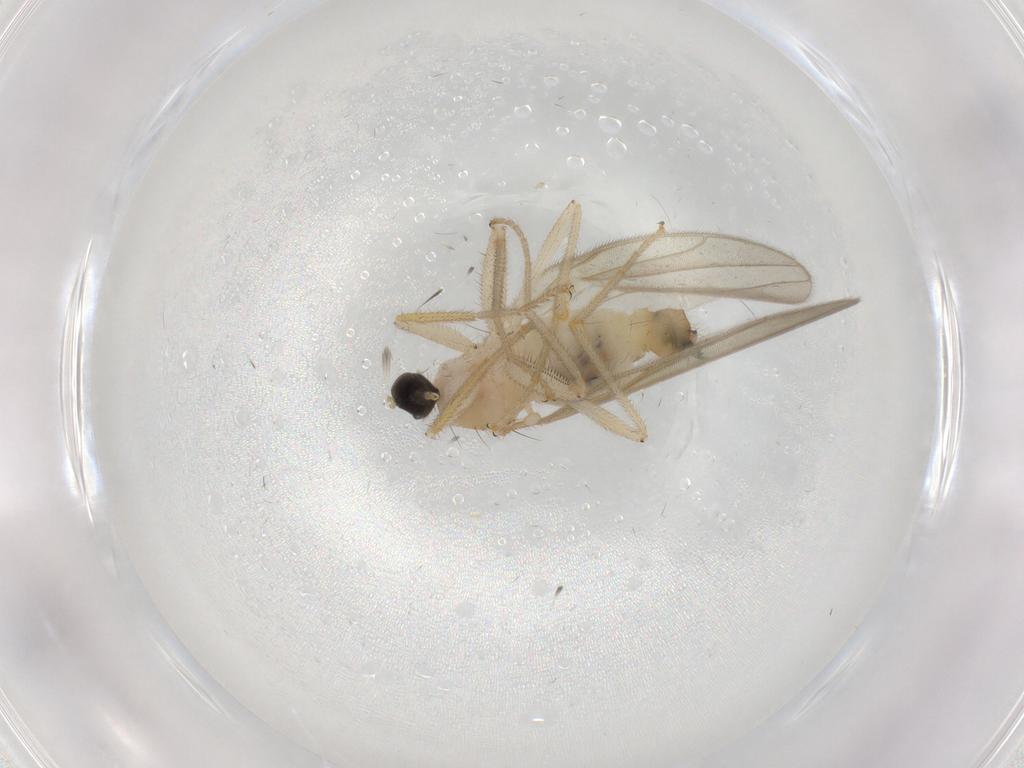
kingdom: Animalia
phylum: Arthropoda
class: Insecta
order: Diptera
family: Hybotidae
